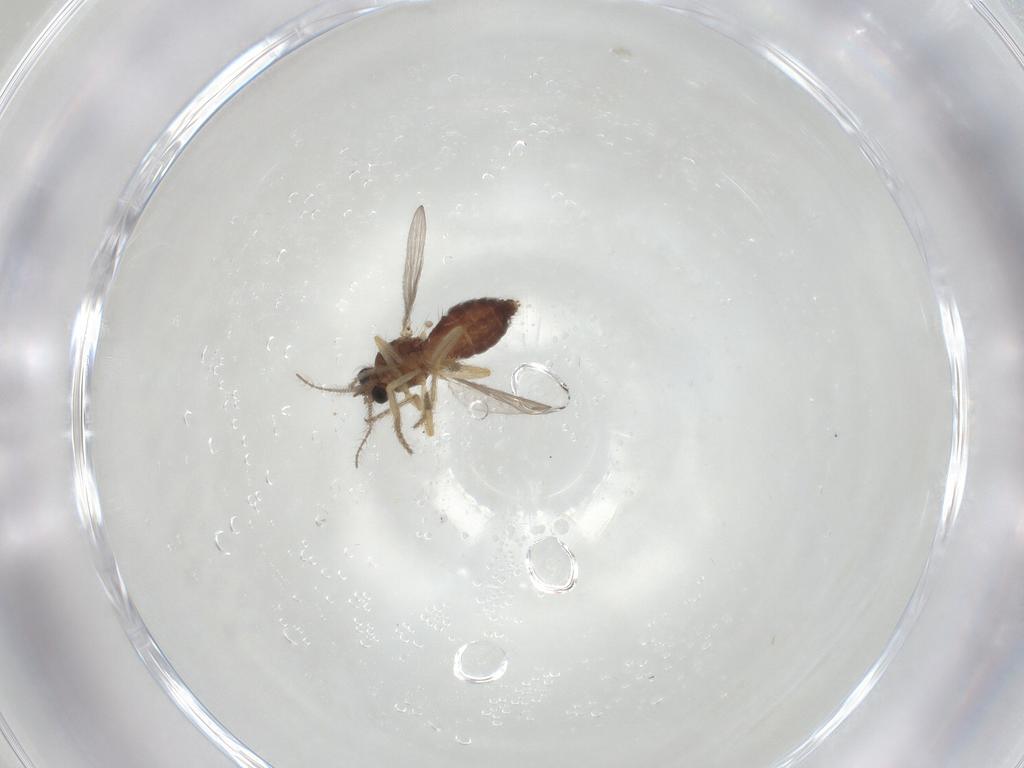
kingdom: Animalia
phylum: Arthropoda
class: Insecta
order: Diptera
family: Ceratopogonidae
